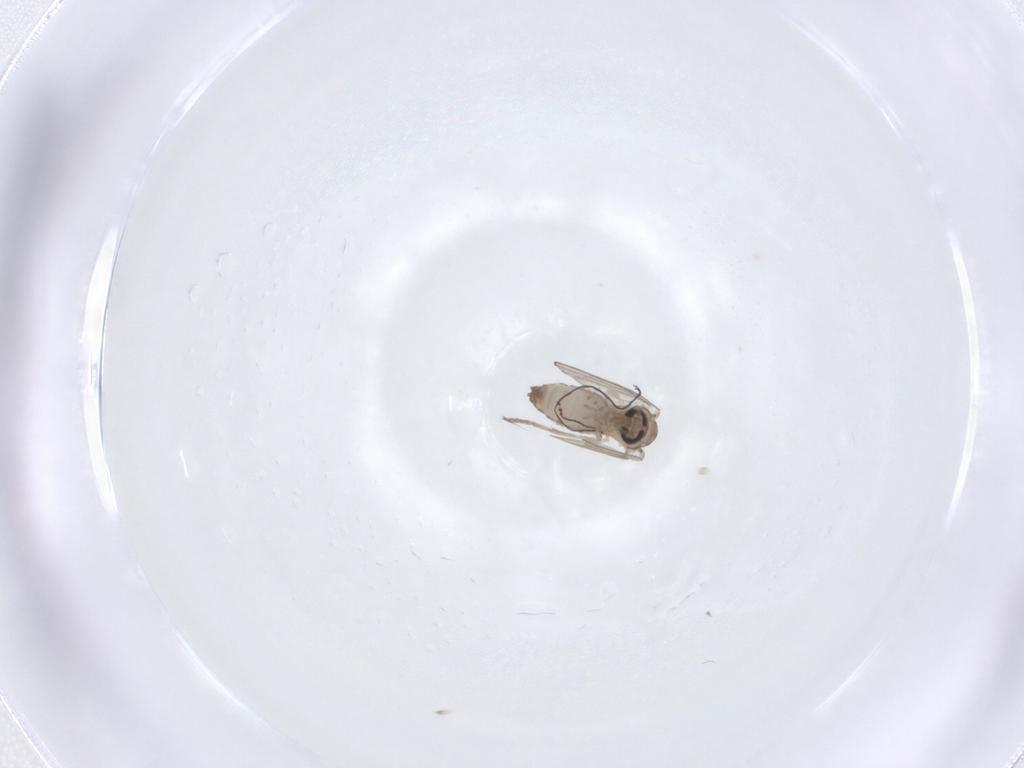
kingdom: Animalia
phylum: Arthropoda
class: Insecta
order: Diptera
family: Psychodidae
